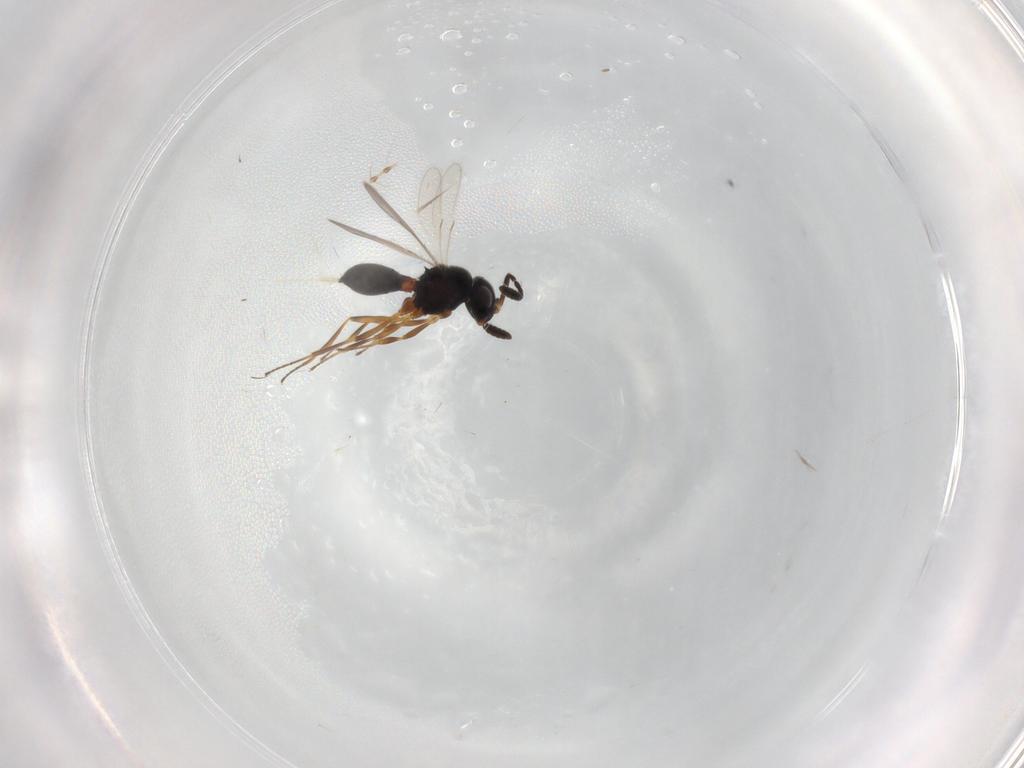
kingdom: Animalia
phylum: Arthropoda
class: Insecta
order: Hymenoptera
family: Scelionidae
